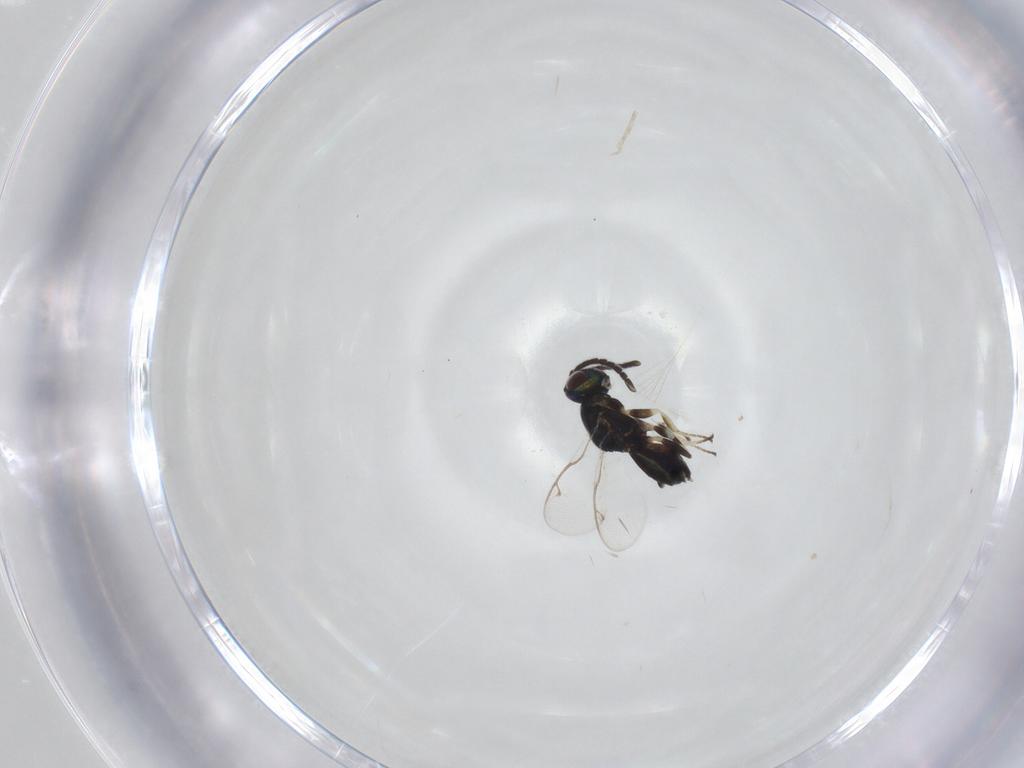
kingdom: Animalia
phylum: Arthropoda
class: Insecta
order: Hymenoptera
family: Eupelmidae
